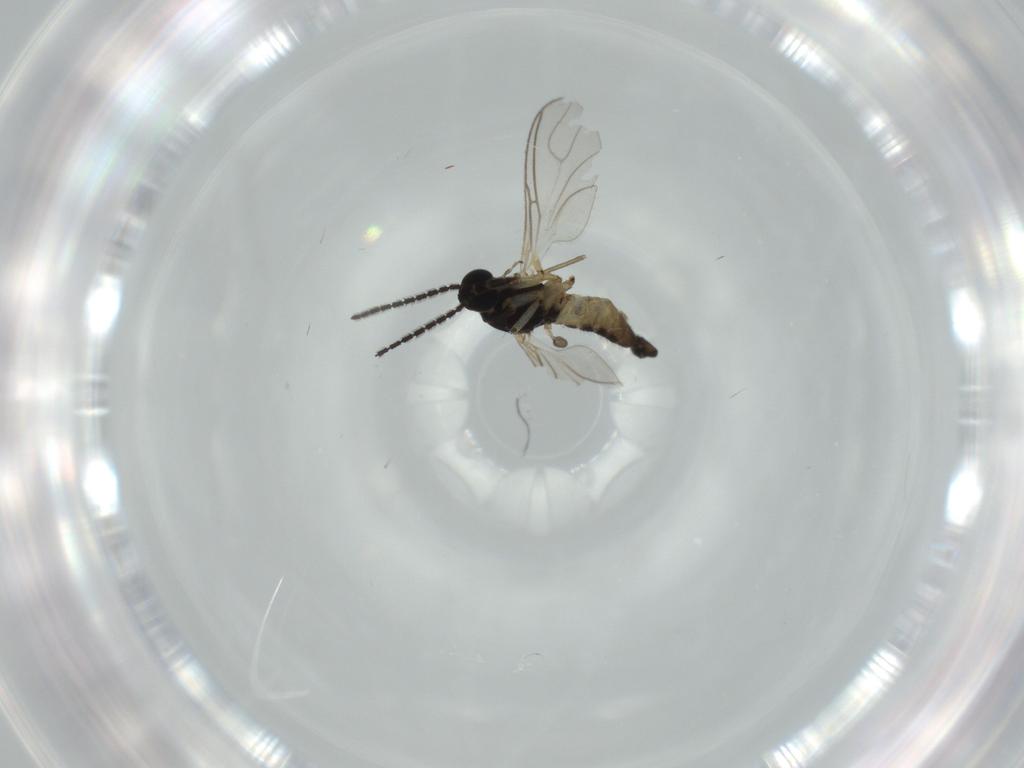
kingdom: Animalia
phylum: Arthropoda
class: Insecta
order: Diptera
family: Sciaridae
